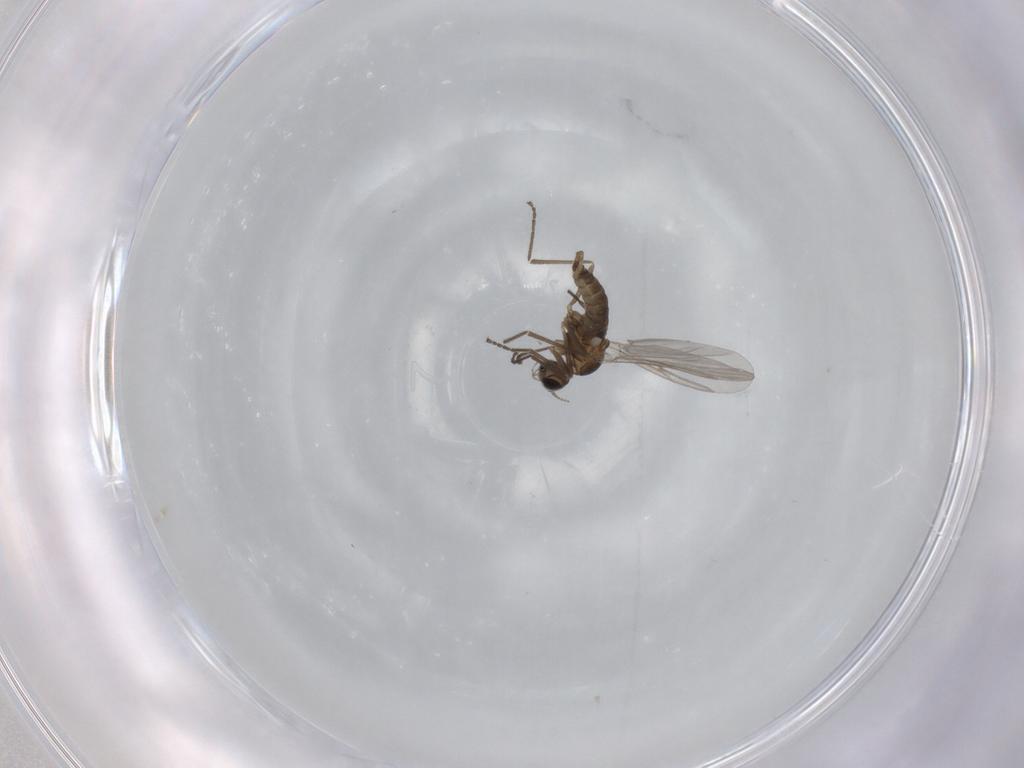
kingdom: Animalia
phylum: Arthropoda
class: Insecta
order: Diptera
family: Cecidomyiidae
